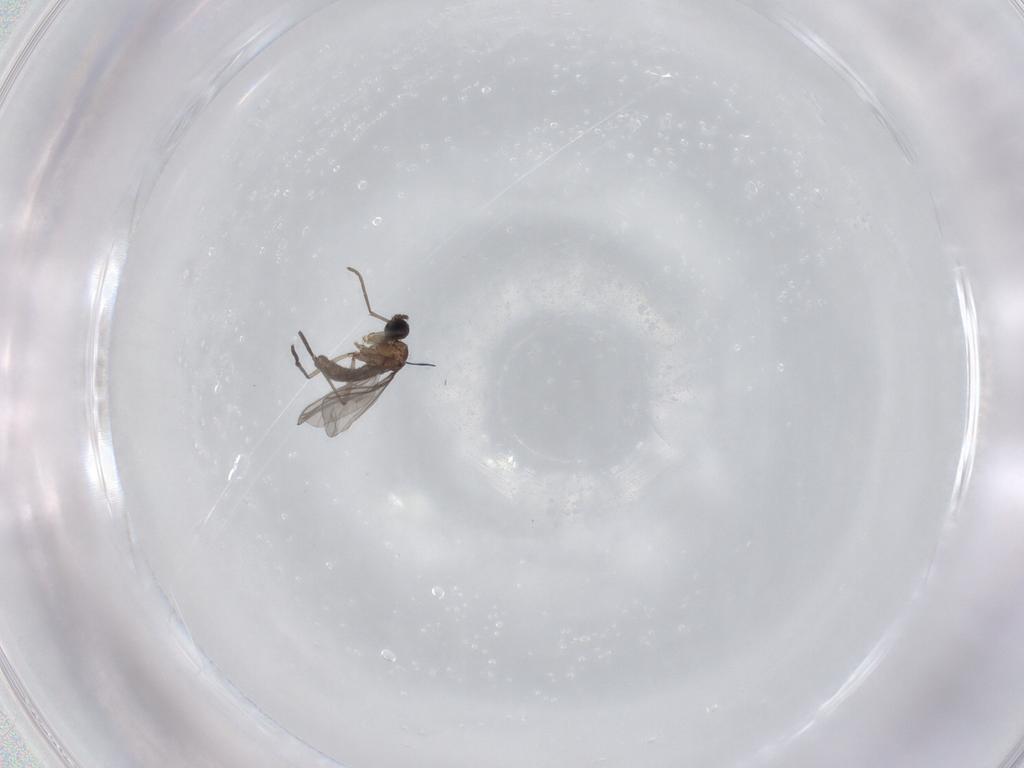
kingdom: Animalia
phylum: Arthropoda
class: Insecta
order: Diptera
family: Sciaridae
